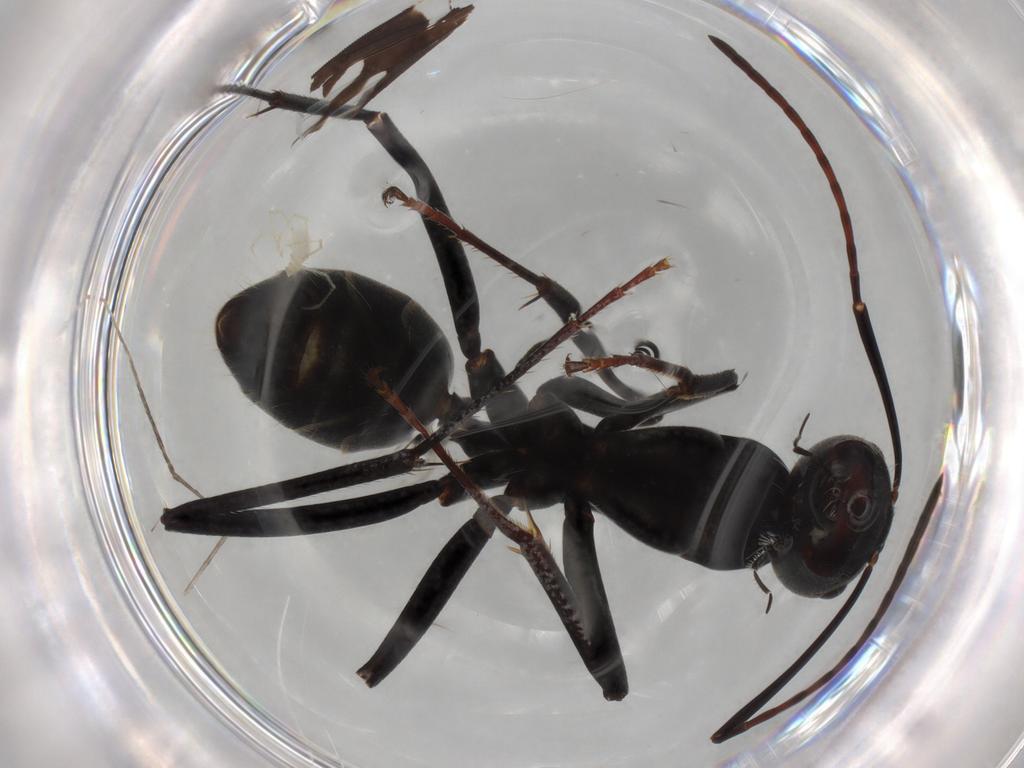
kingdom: Animalia
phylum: Arthropoda
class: Insecta
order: Hymenoptera
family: Formicidae
